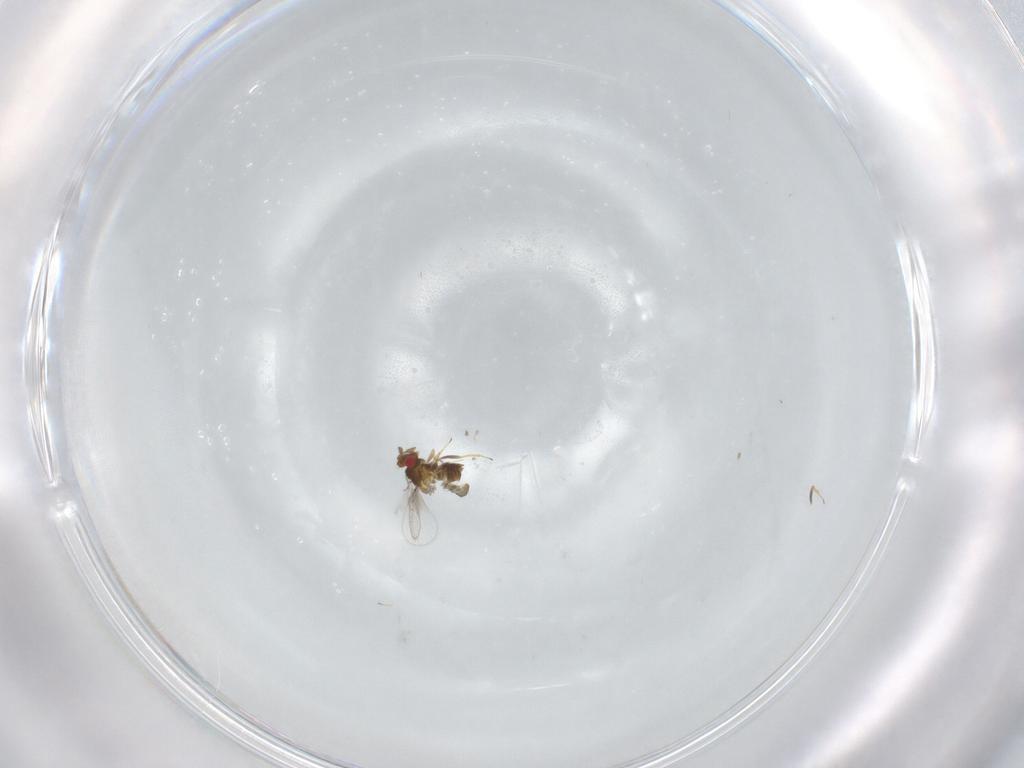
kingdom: Animalia
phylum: Arthropoda
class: Insecta
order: Hymenoptera
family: Trichogrammatidae
